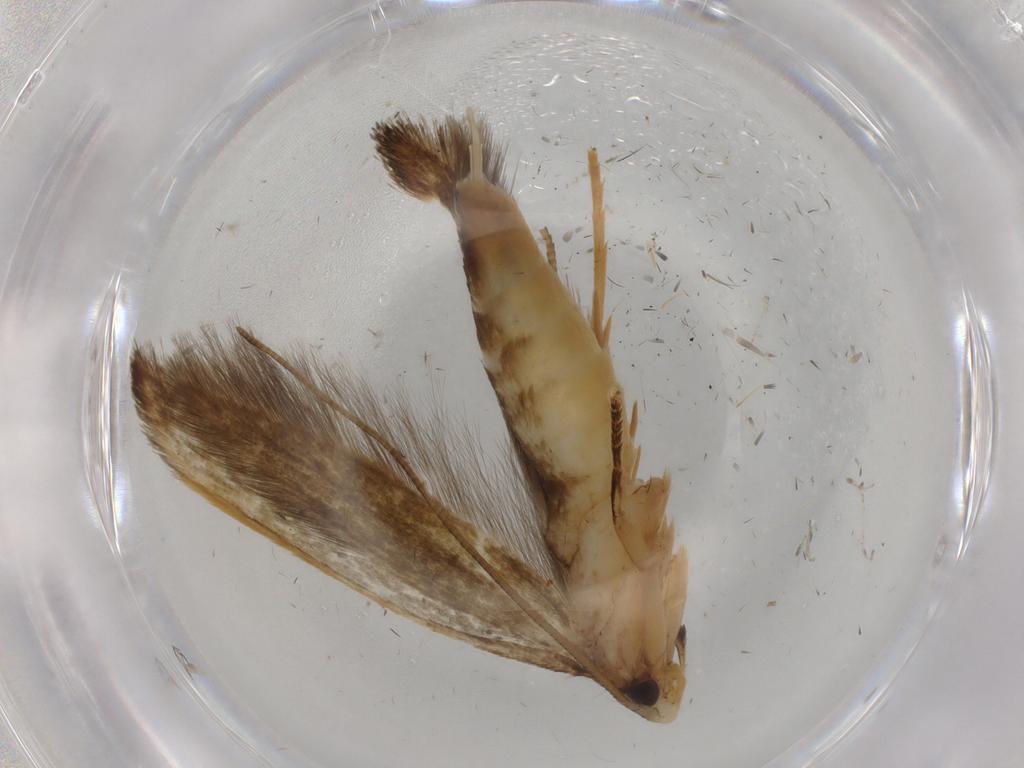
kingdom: Animalia
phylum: Arthropoda
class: Insecta
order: Lepidoptera
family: Tineidae
